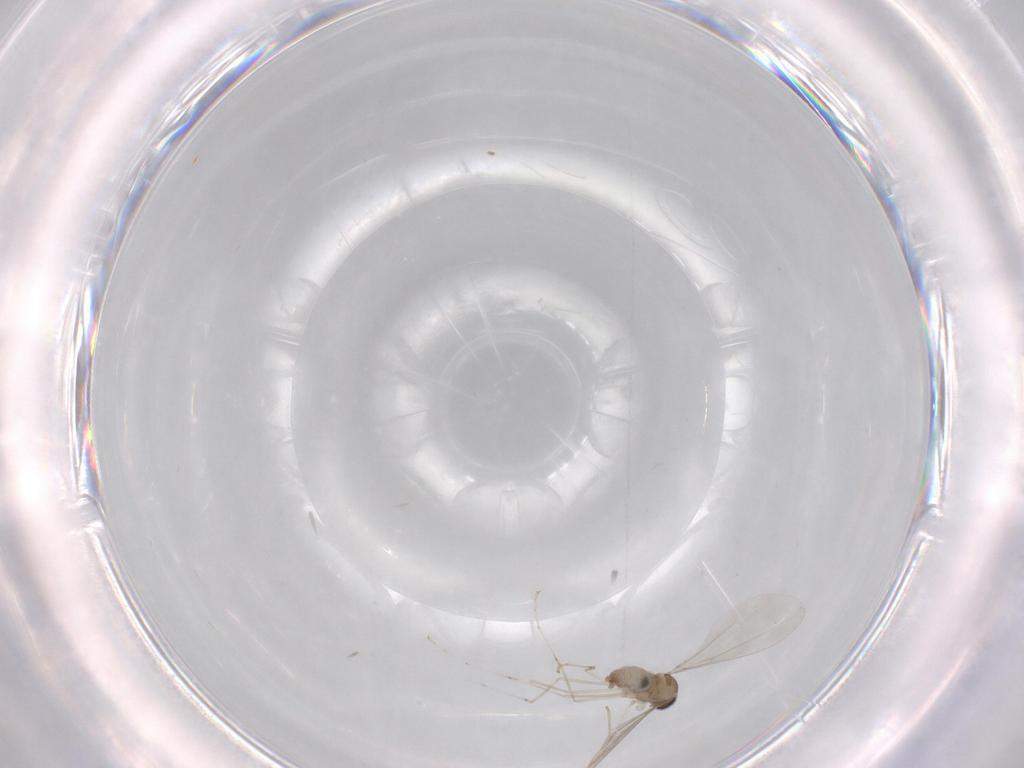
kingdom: Animalia
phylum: Arthropoda
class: Insecta
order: Diptera
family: Cecidomyiidae
